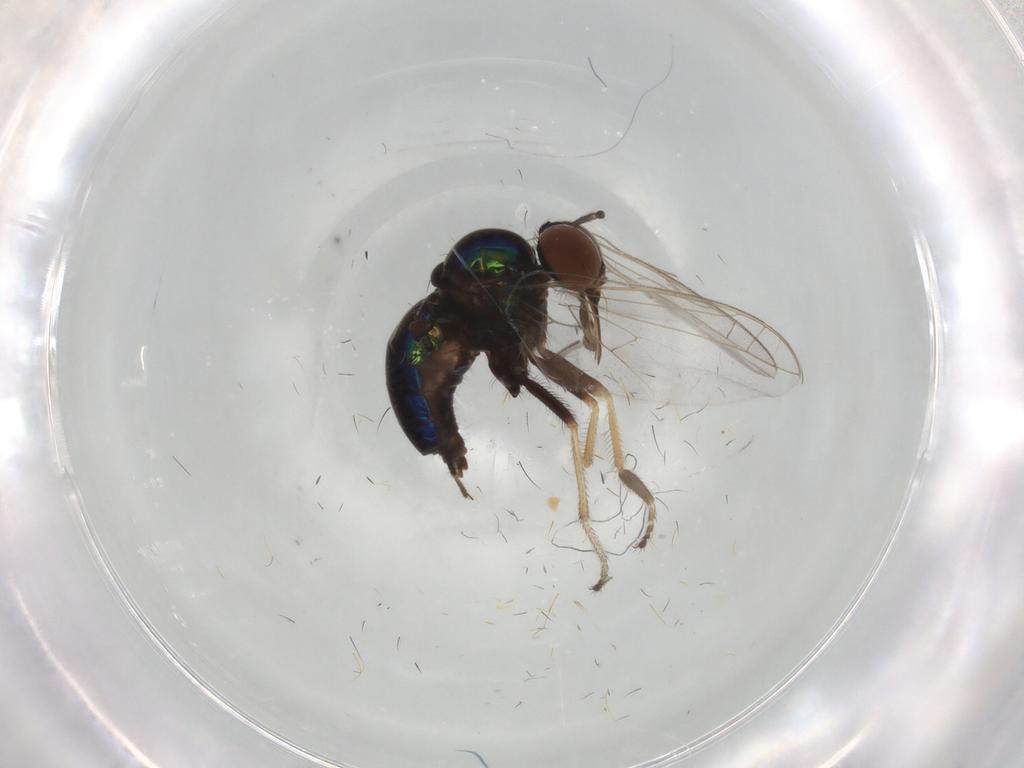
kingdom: Animalia
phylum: Arthropoda
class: Insecta
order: Diptera
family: Empididae
